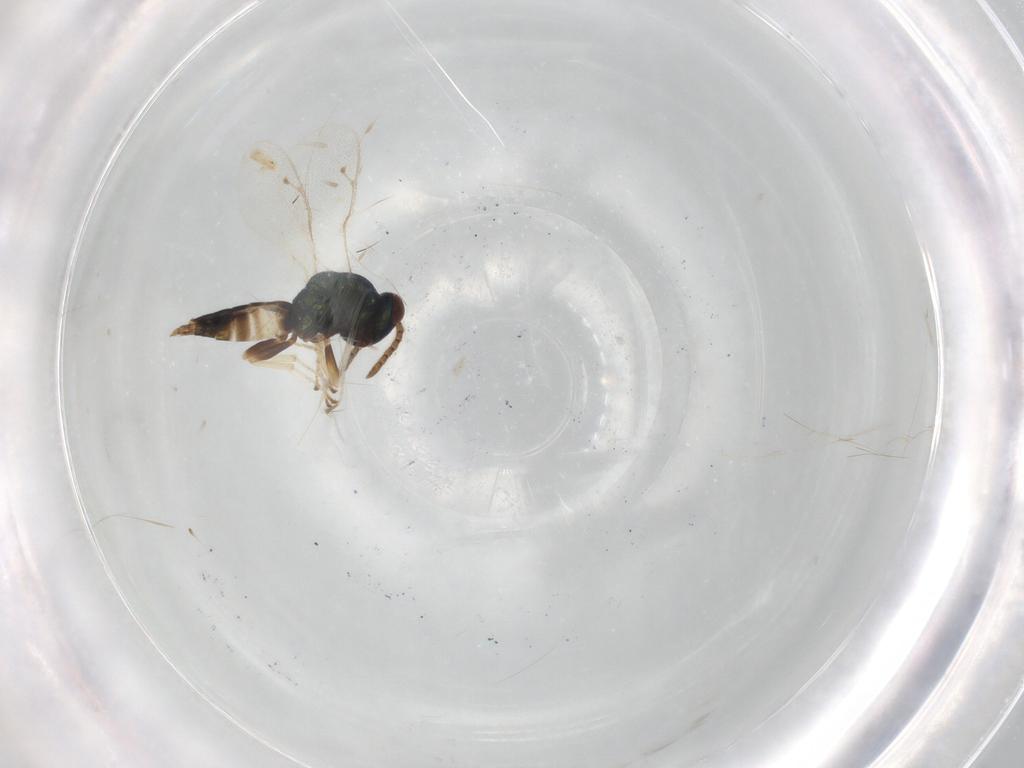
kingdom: Animalia
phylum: Arthropoda
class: Insecta
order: Hymenoptera
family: Pteromalidae
